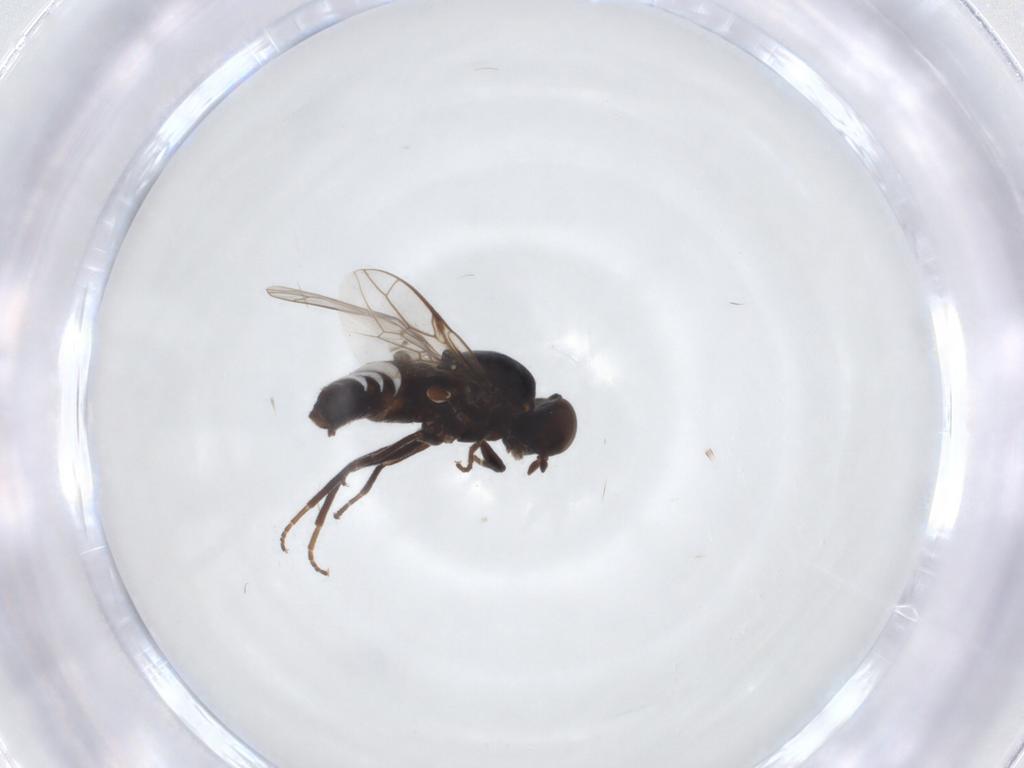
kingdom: Animalia
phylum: Arthropoda
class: Insecta
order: Diptera
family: Scenopinidae
